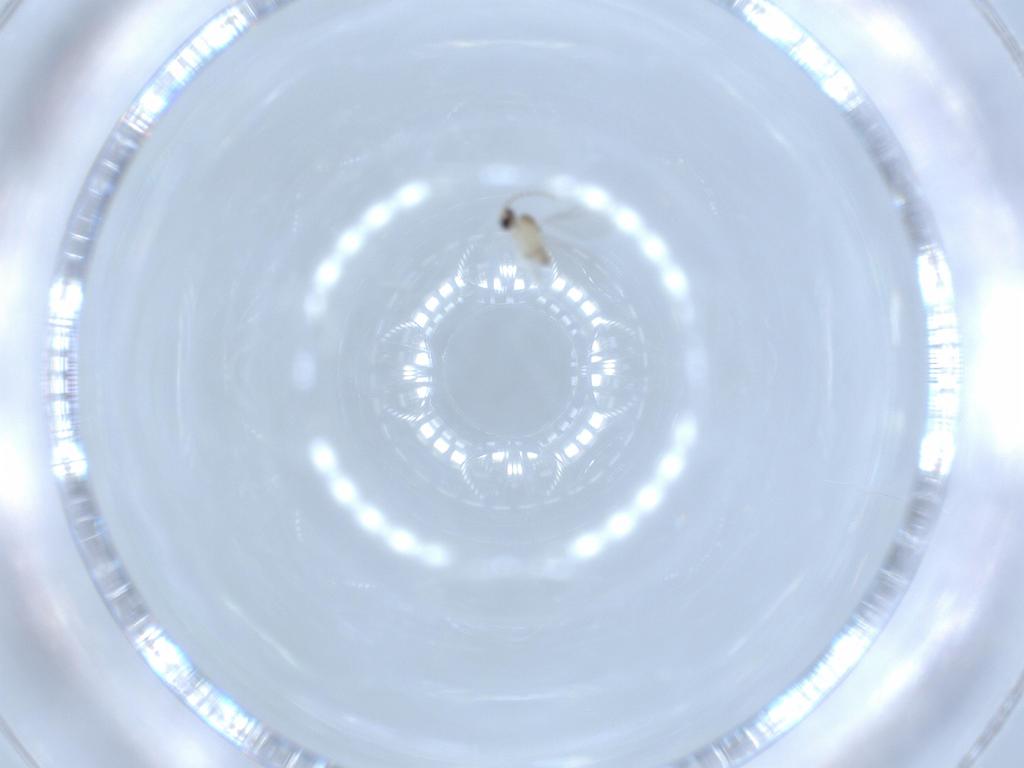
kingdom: Animalia
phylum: Arthropoda
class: Insecta
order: Diptera
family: Cecidomyiidae
